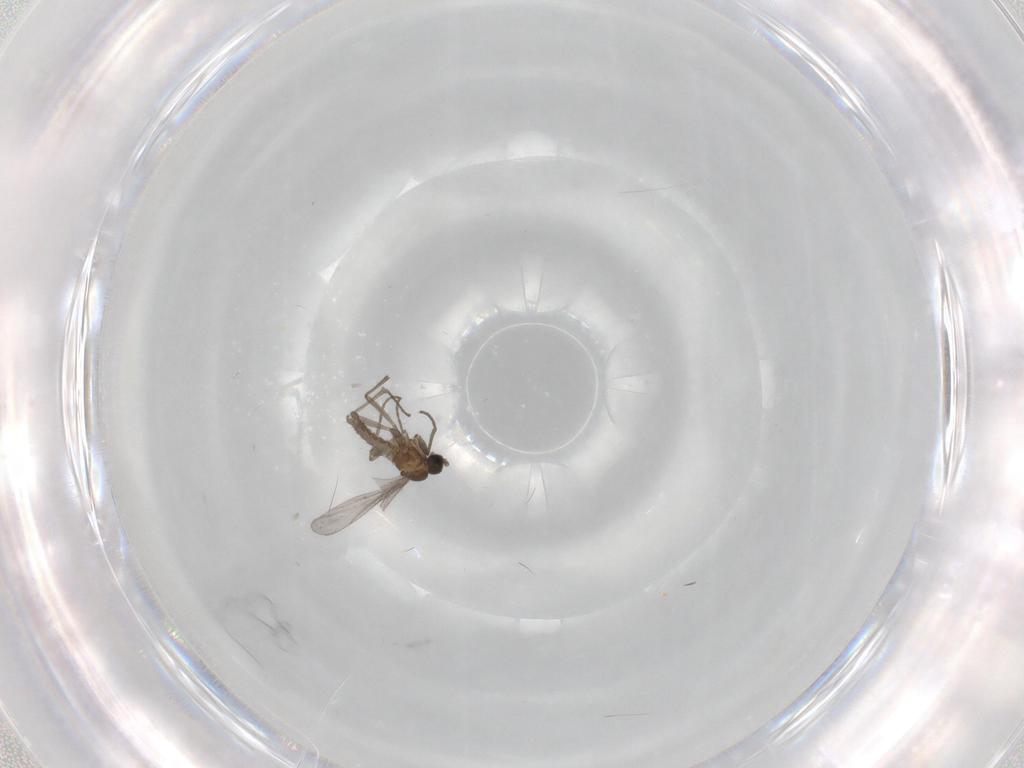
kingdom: Animalia
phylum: Arthropoda
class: Insecta
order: Diptera
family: Sciaridae
